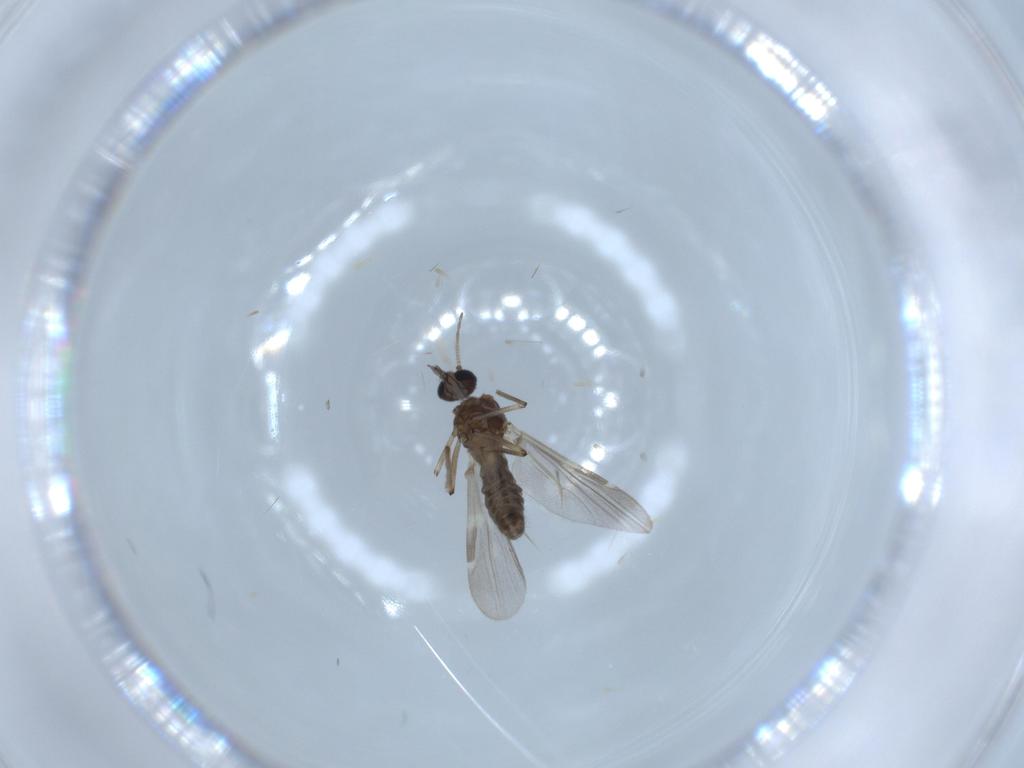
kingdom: Animalia
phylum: Arthropoda
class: Insecta
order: Diptera
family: Ceratopogonidae
